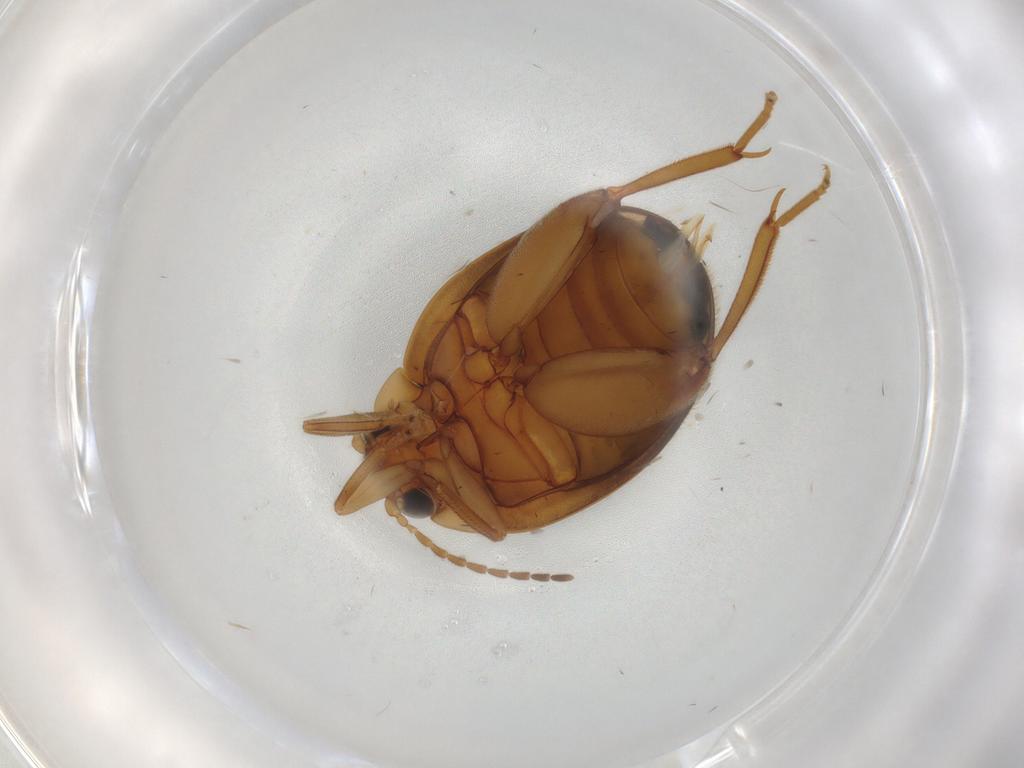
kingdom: Animalia
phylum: Arthropoda
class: Insecta
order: Coleoptera
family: Scirtidae
